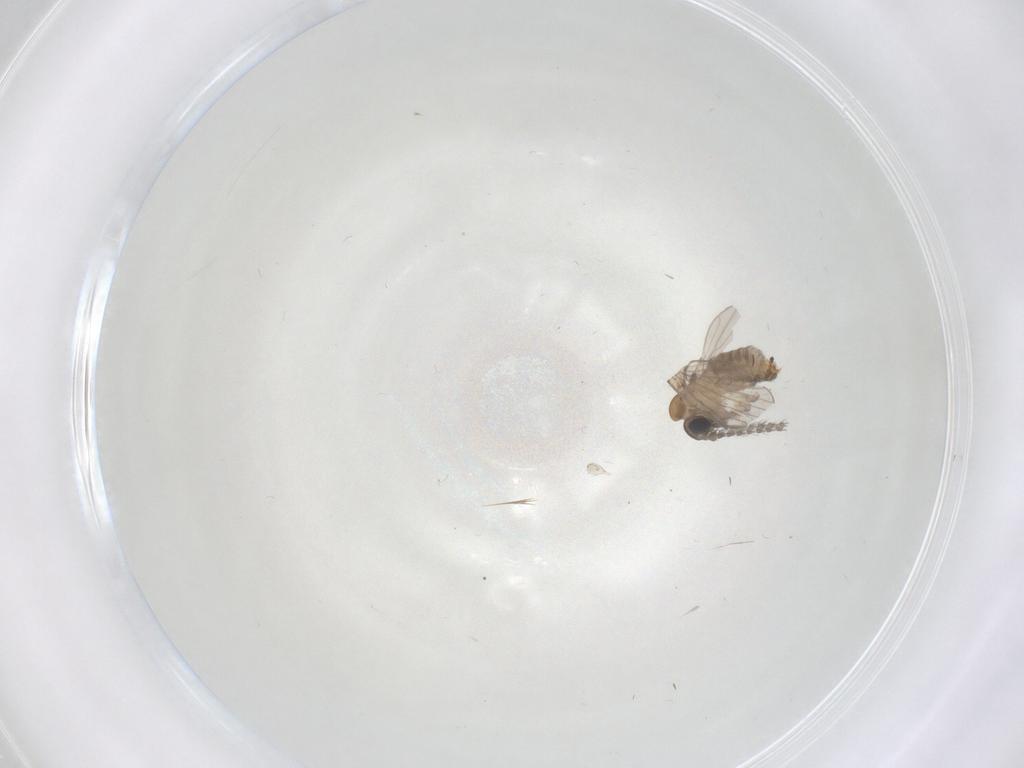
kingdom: Animalia
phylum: Arthropoda
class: Insecta
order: Diptera
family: Psychodidae
